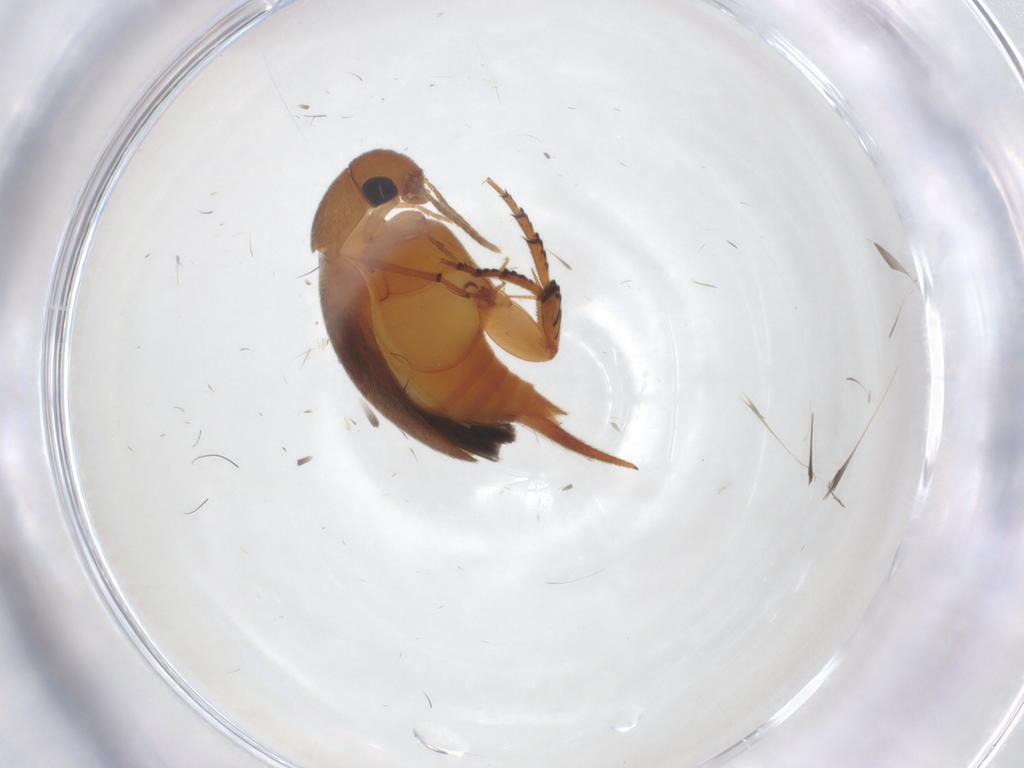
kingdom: Animalia
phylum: Arthropoda
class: Insecta
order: Coleoptera
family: Mordellidae
